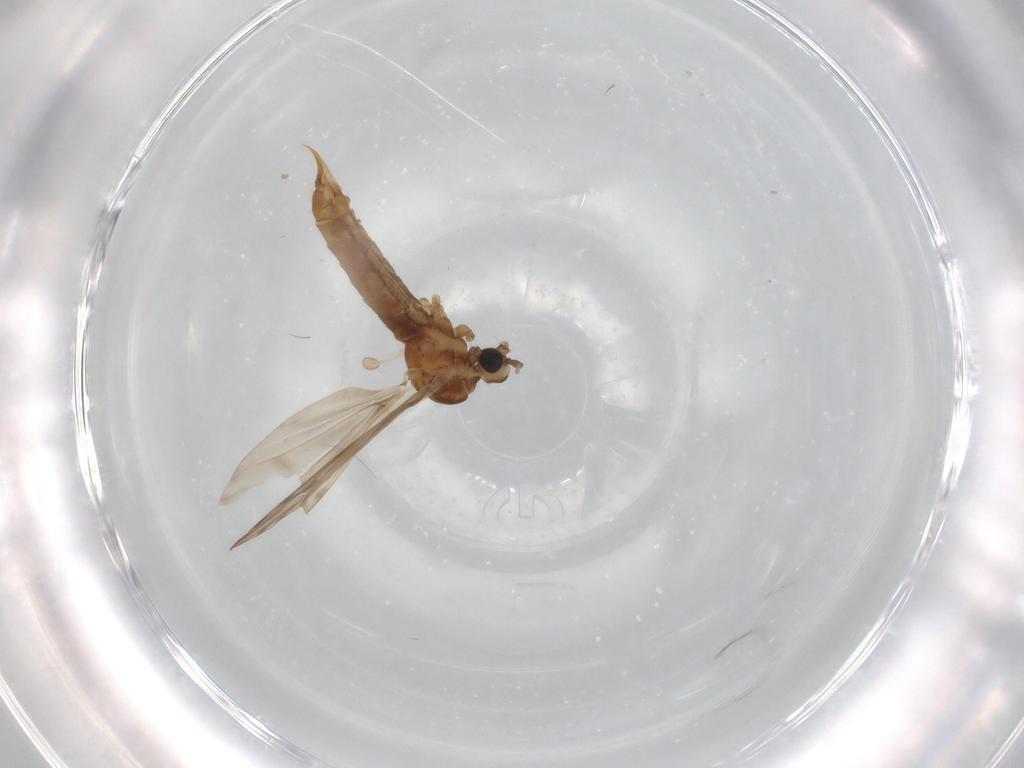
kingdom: Animalia
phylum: Arthropoda
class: Insecta
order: Diptera
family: Limoniidae
